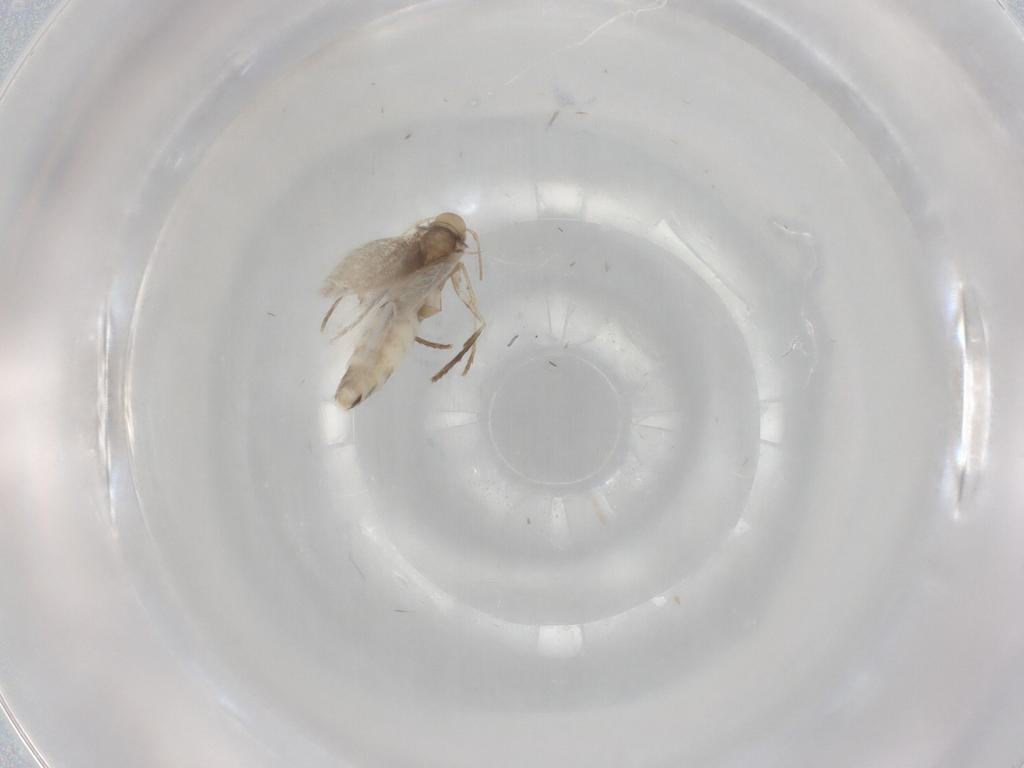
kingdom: Animalia
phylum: Arthropoda
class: Insecta
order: Lepidoptera
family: Gracillariidae
